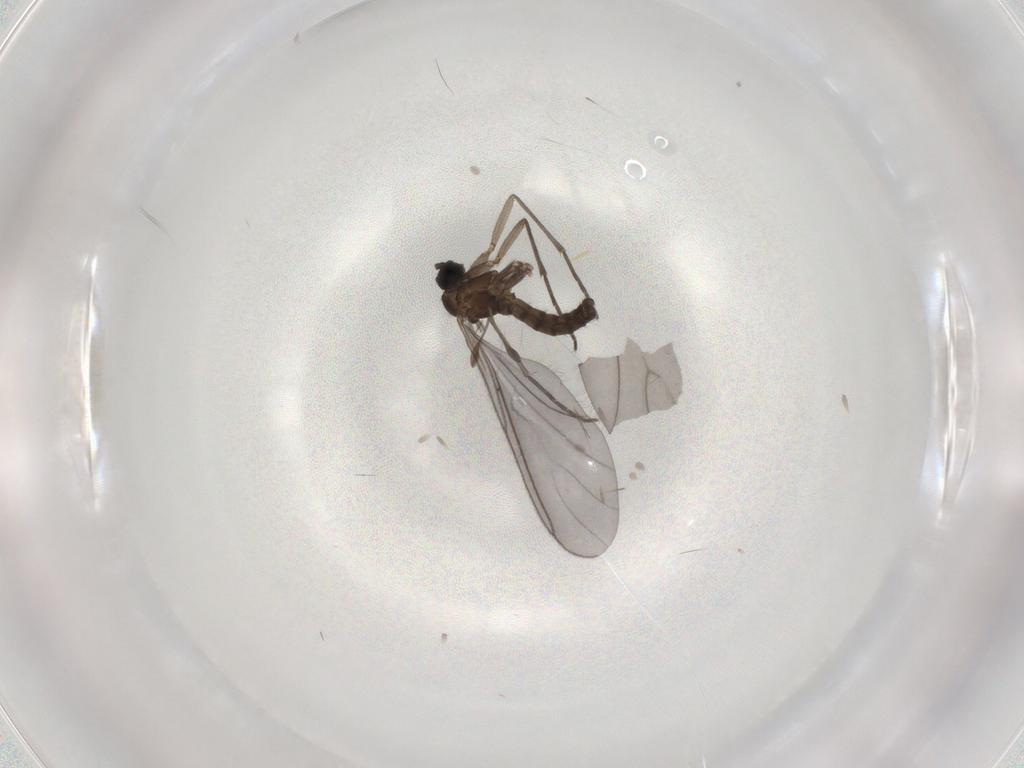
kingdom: Animalia
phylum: Arthropoda
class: Insecta
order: Diptera
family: Sciaridae
